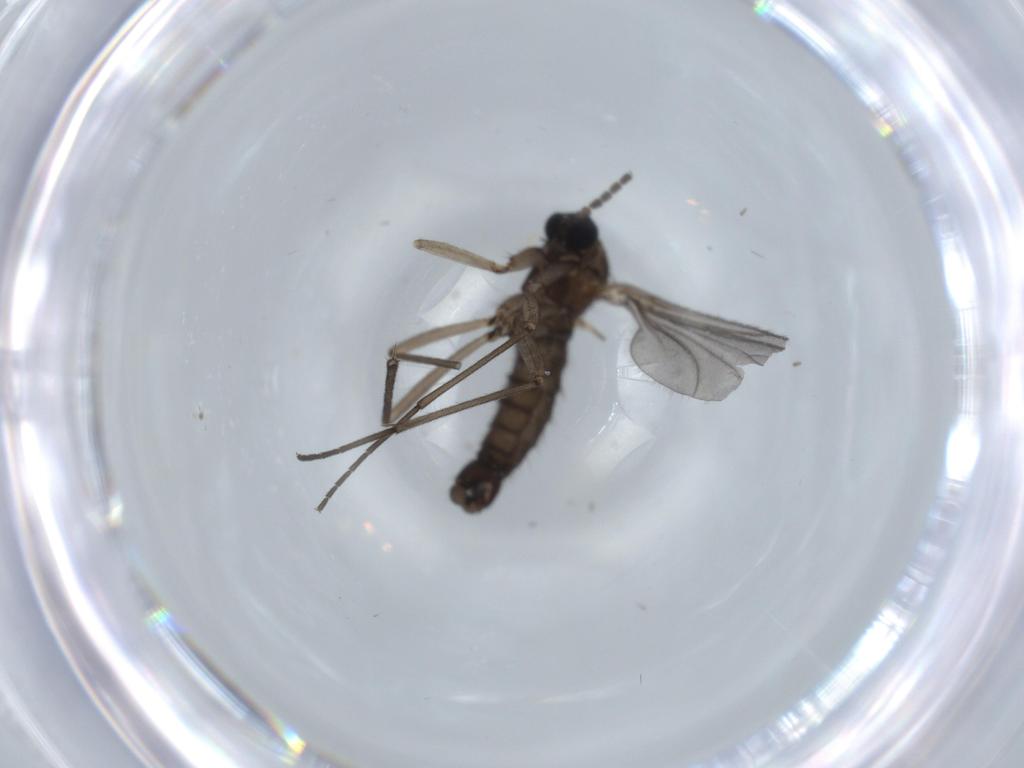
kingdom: Animalia
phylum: Arthropoda
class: Insecta
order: Diptera
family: Sciaridae
